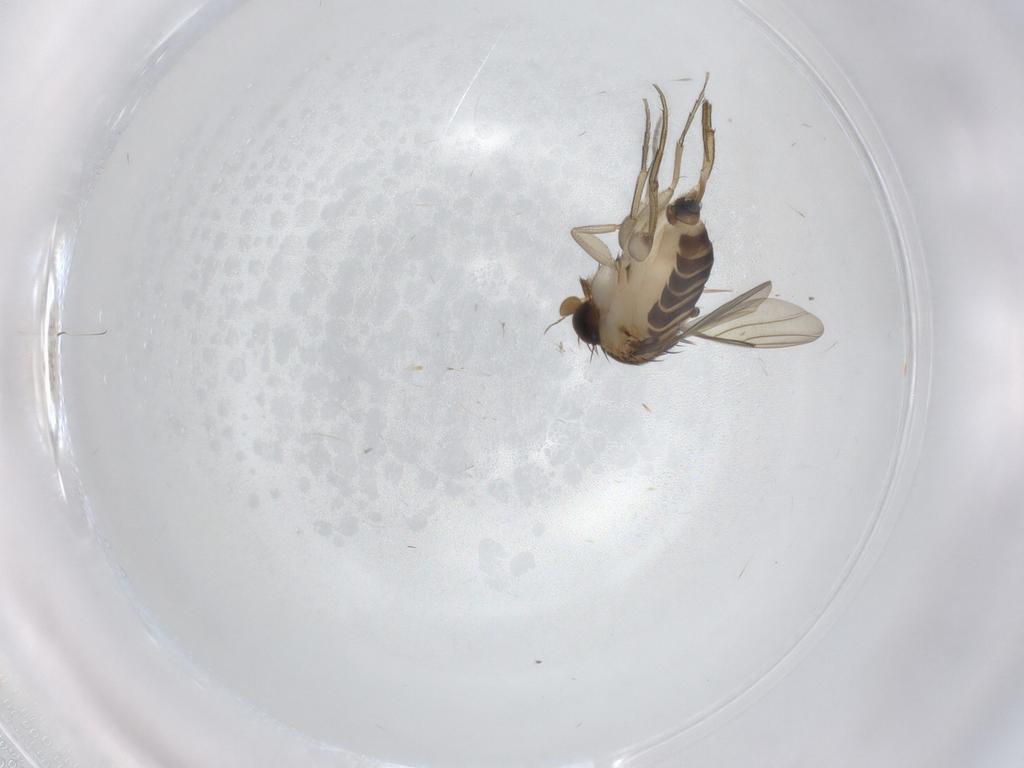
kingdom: Animalia
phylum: Arthropoda
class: Insecta
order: Diptera
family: Phoridae
